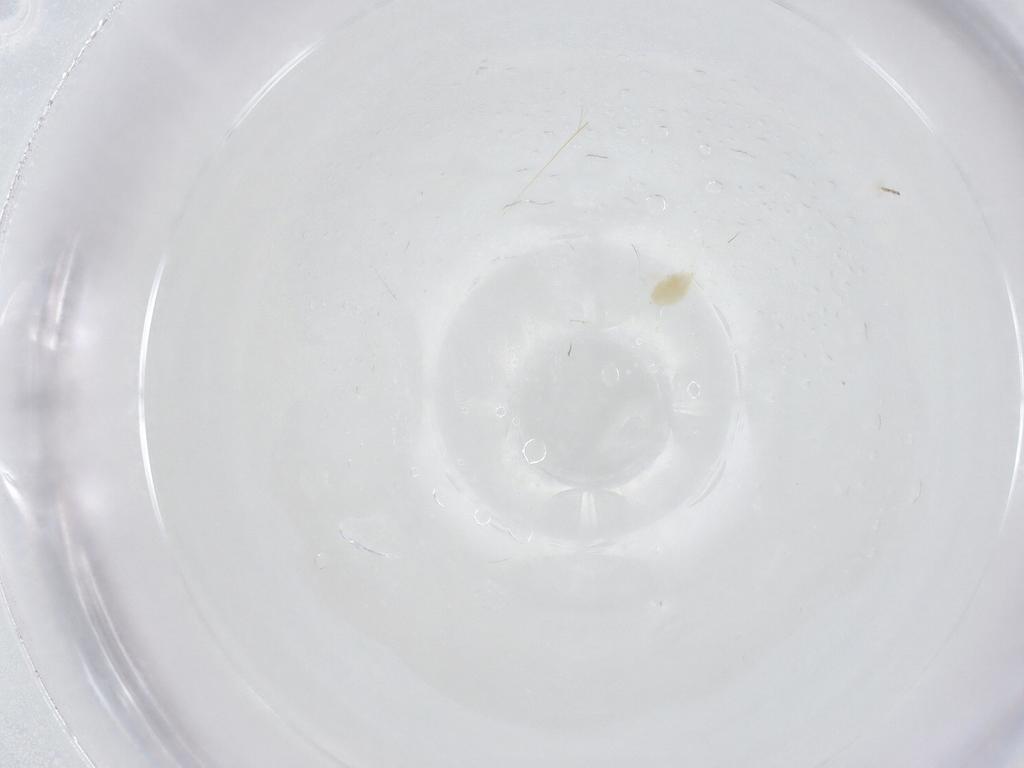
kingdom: Animalia
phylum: Arthropoda
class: Arachnida
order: Trombidiformes
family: Eupodidae
